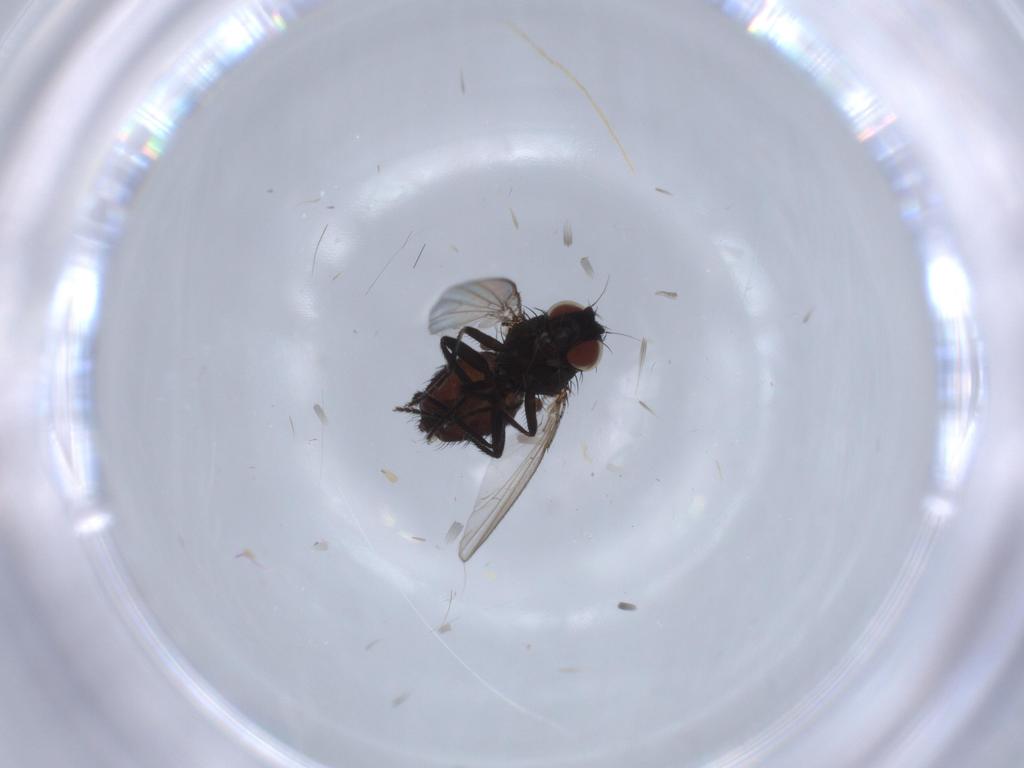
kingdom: Animalia
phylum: Arthropoda
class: Insecta
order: Diptera
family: Milichiidae
